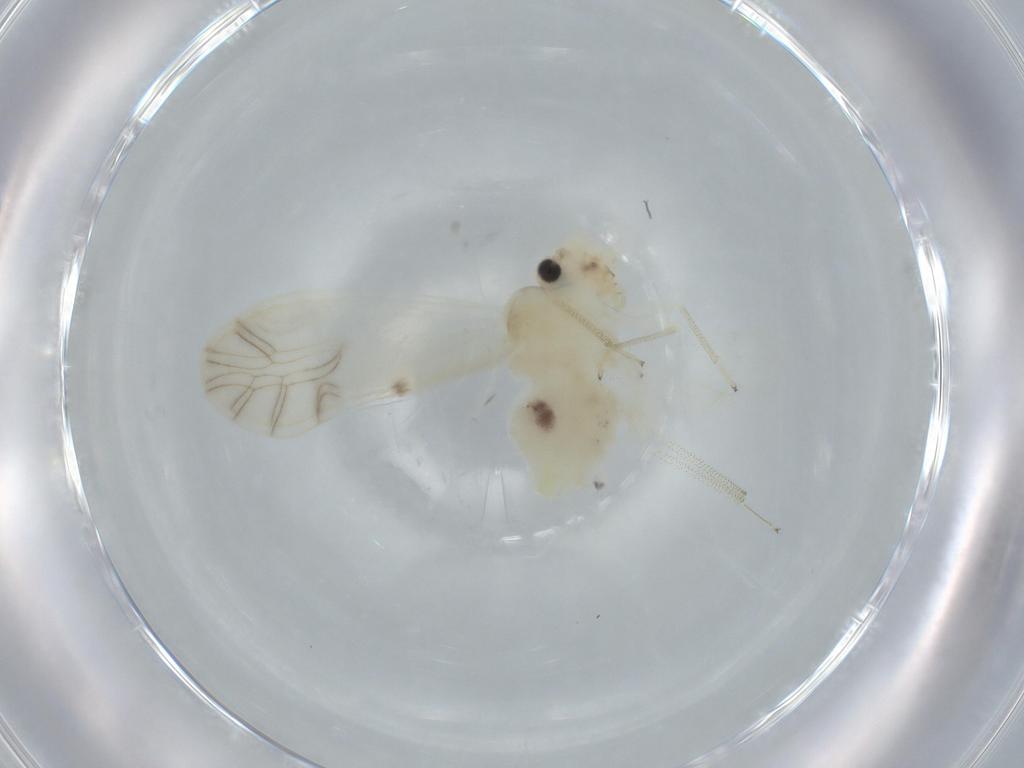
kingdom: Animalia
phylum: Arthropoda
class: Insecta
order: Psocodea
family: Caeciliusidae
